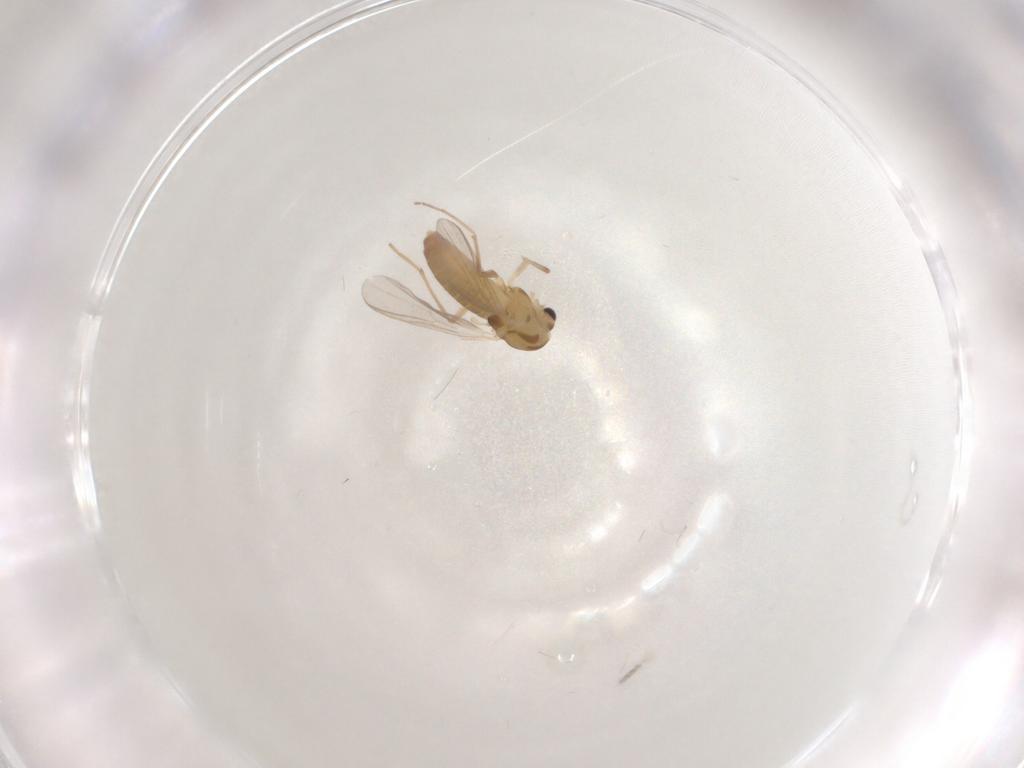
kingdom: Animalia
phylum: Arthropoda
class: Insecta
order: Diptera
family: Chironomidae
